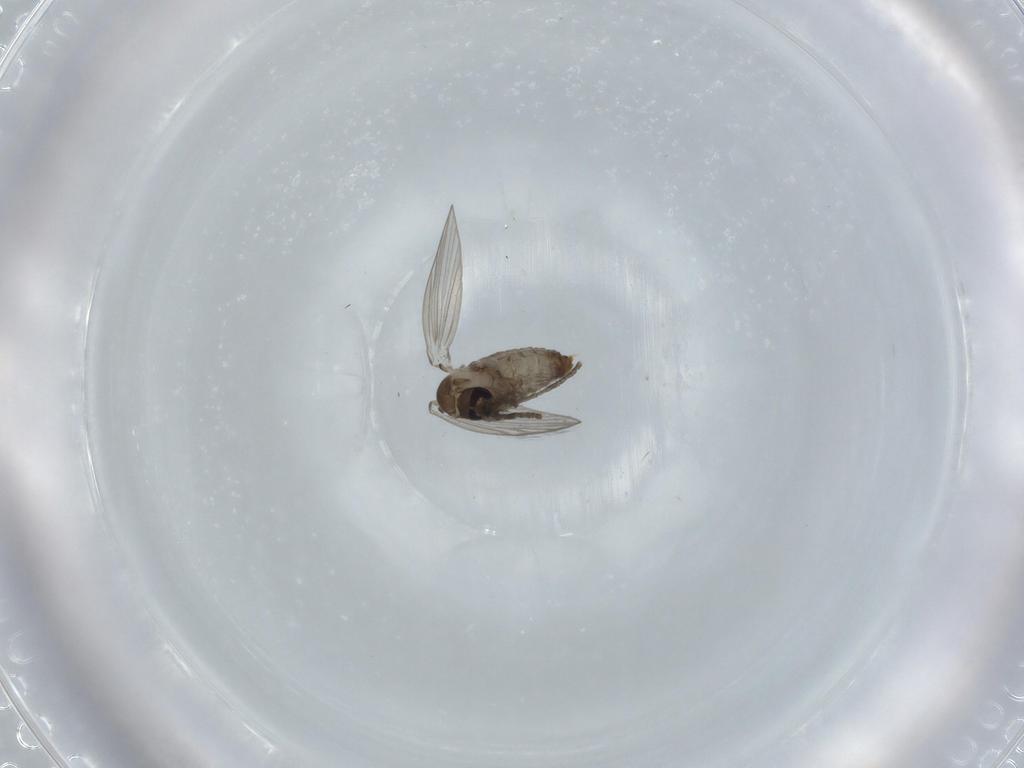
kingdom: Animalia
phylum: Arthropoda
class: Insecta
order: Diptera
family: Psychodidae
